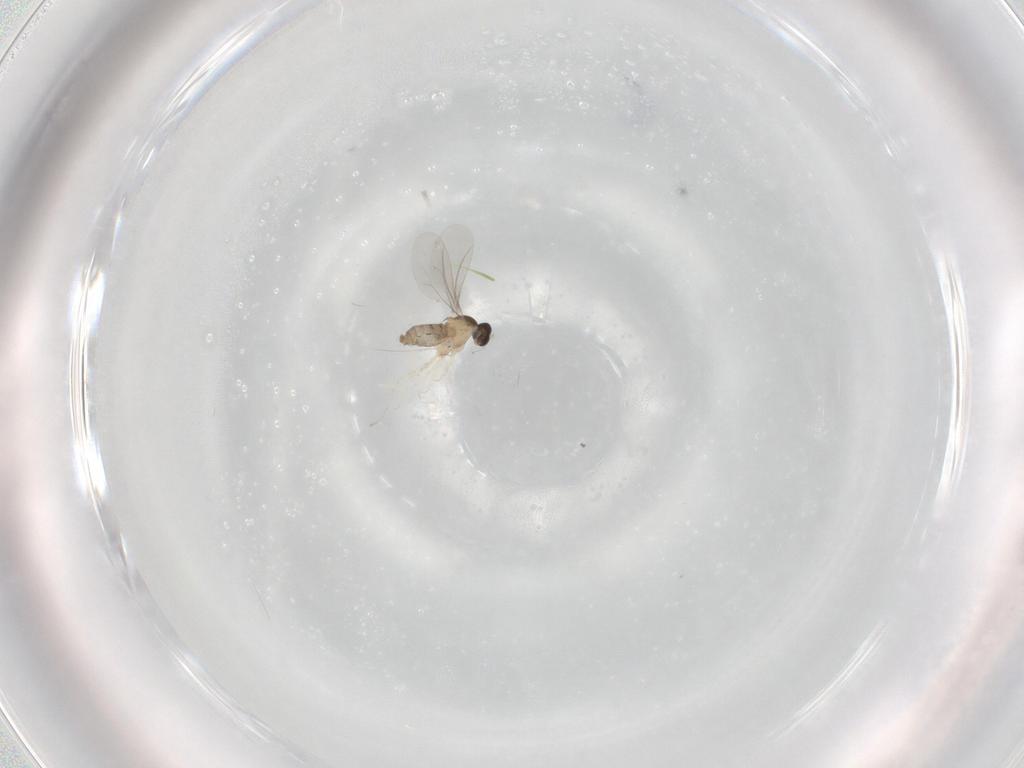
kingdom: Animalia
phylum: Arthropoda
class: Insecta
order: Diptera
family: Cecidomyiidae
